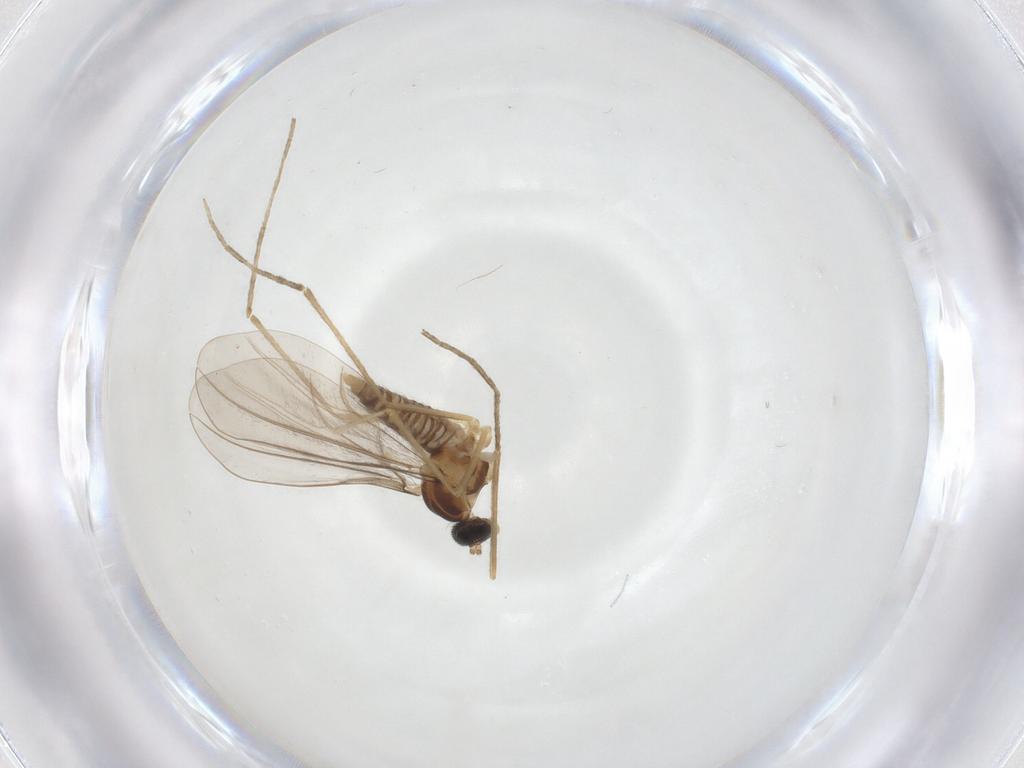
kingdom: Animalia
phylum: Arthropoda
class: Insecta
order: Diptera
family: Cecidomyiidae
